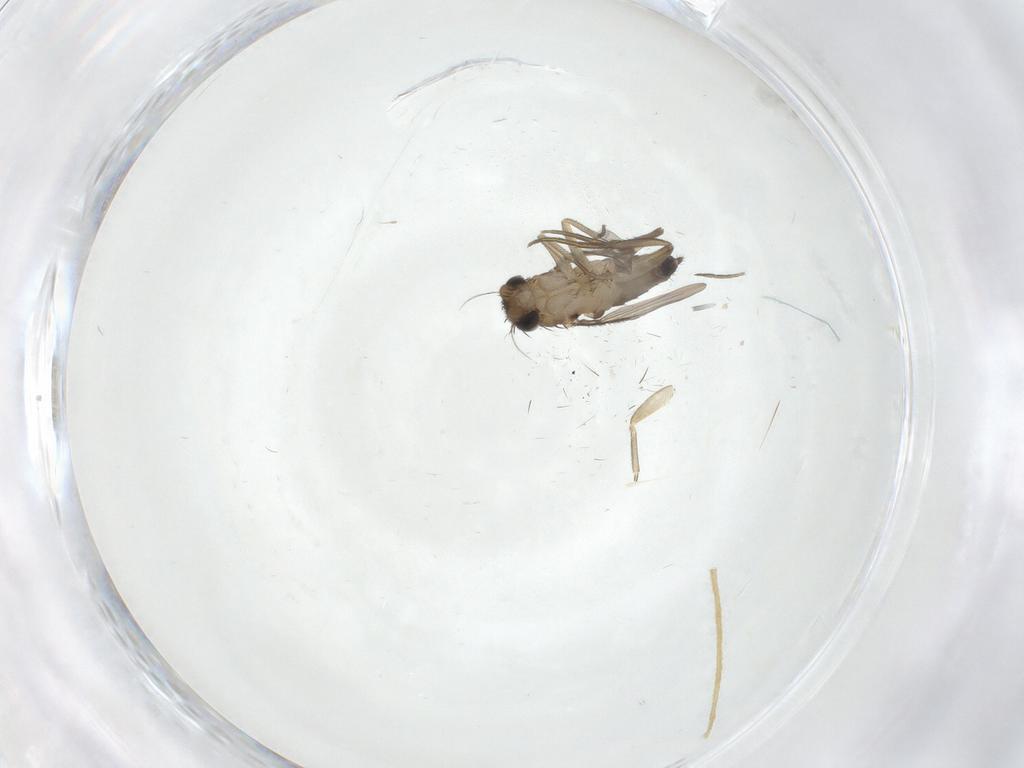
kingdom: Animalia
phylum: Arthropoda
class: Insecta
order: Diptera
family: Phoridae
